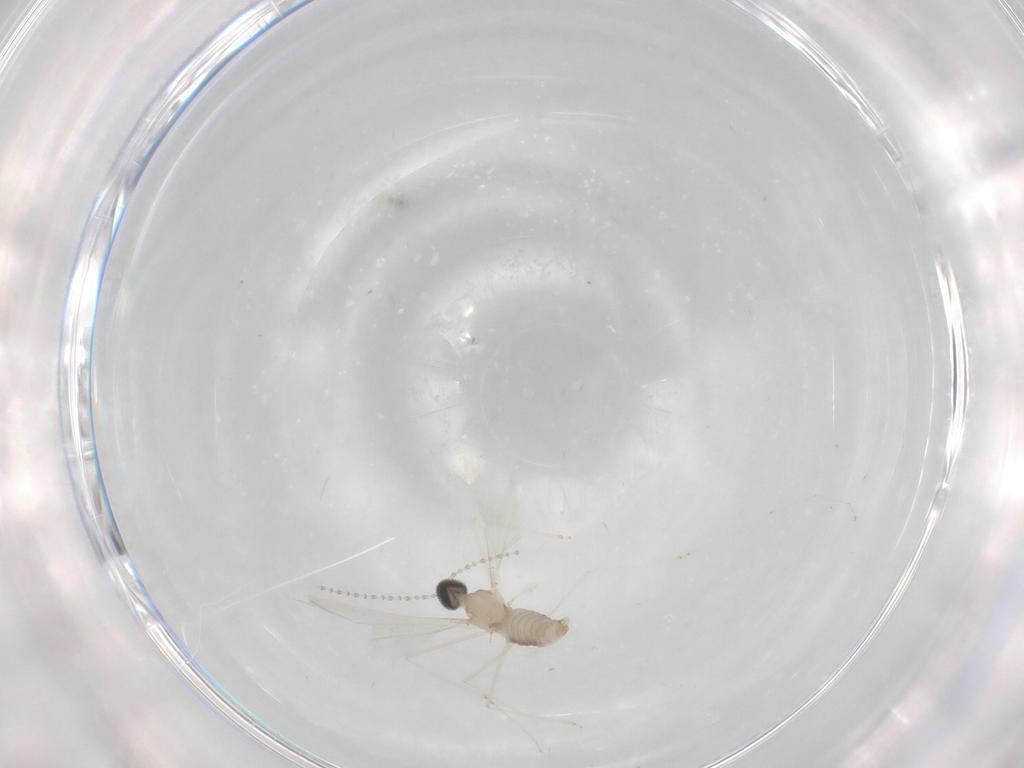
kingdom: Animalia
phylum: Arthropoda
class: Insecta
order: Diptera
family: Cecidomyiidae
